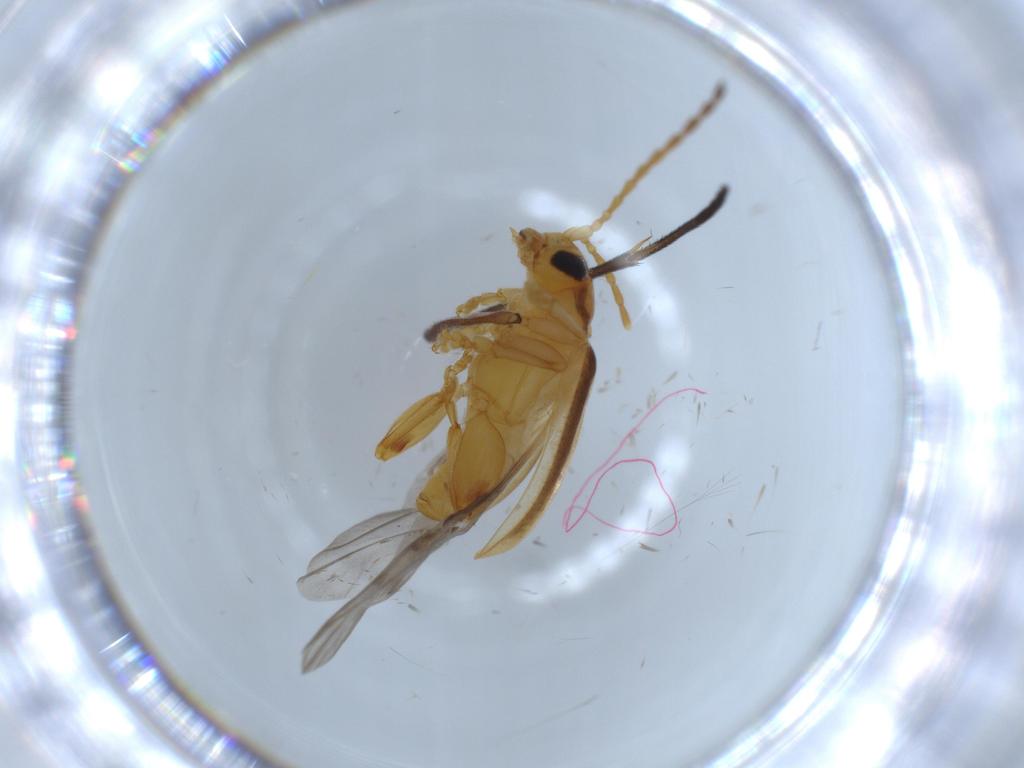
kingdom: Animalia
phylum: Arthropoda
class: Insecta
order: Coleoptera
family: Chrysomelidae
